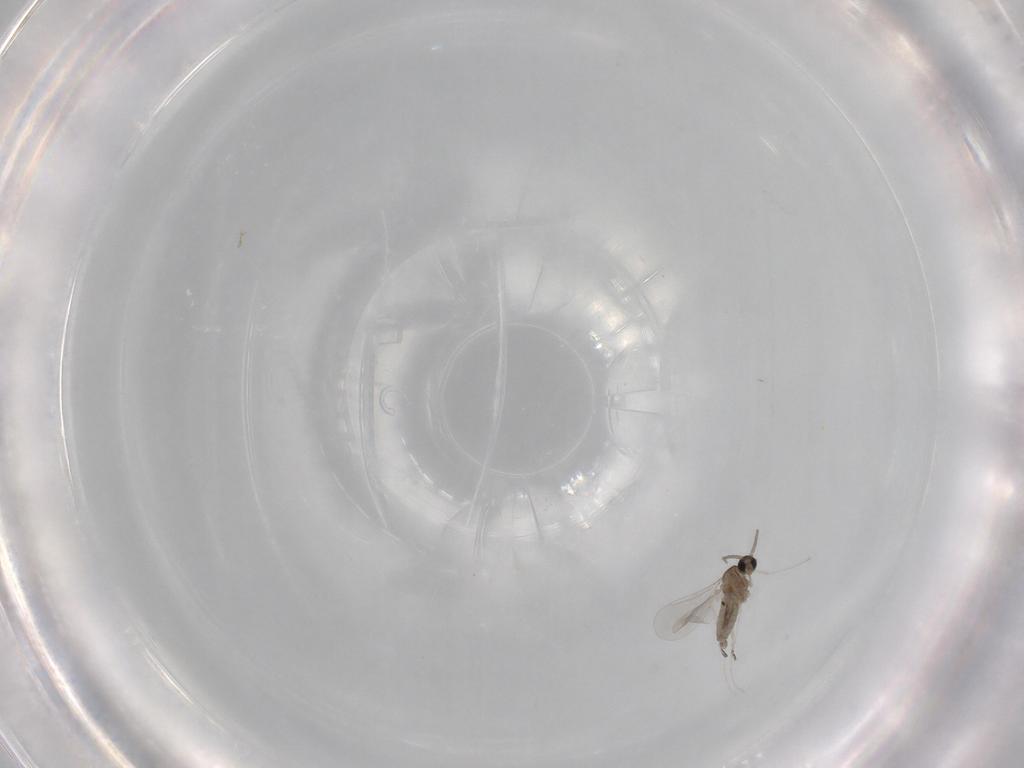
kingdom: Animalia
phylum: Arthropoda
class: Insecta
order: Diptera
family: Cecidomyiidae
